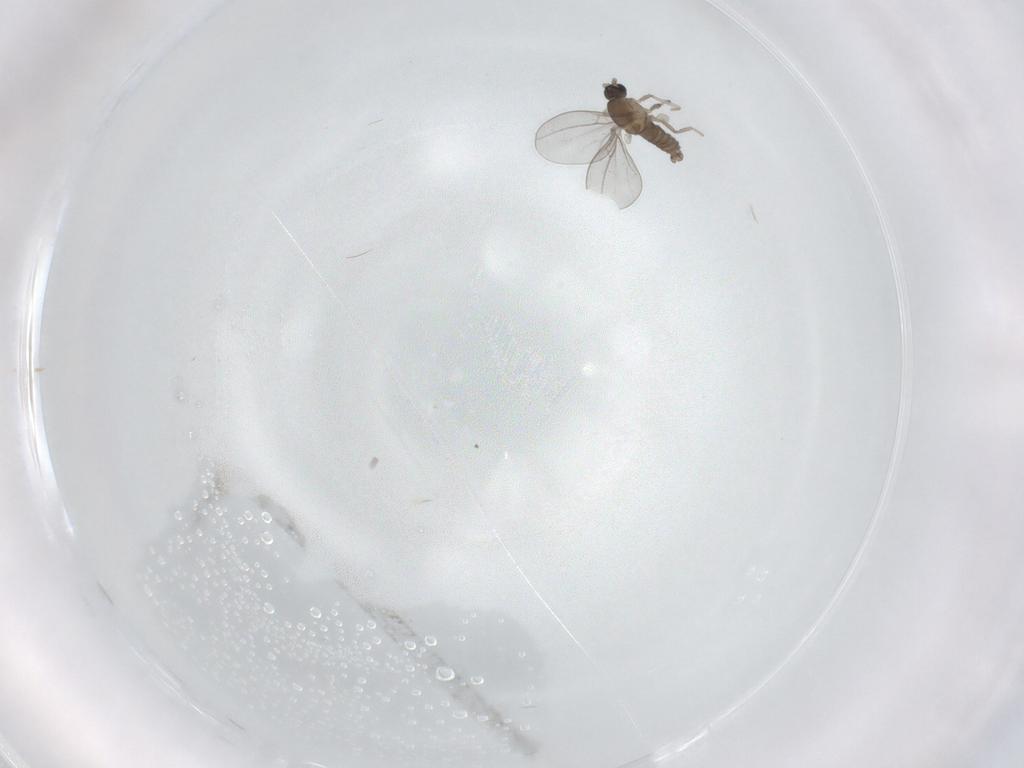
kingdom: Animalia
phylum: Arthropoda
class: Insecta
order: Diptera
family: Cecidomyiidae
